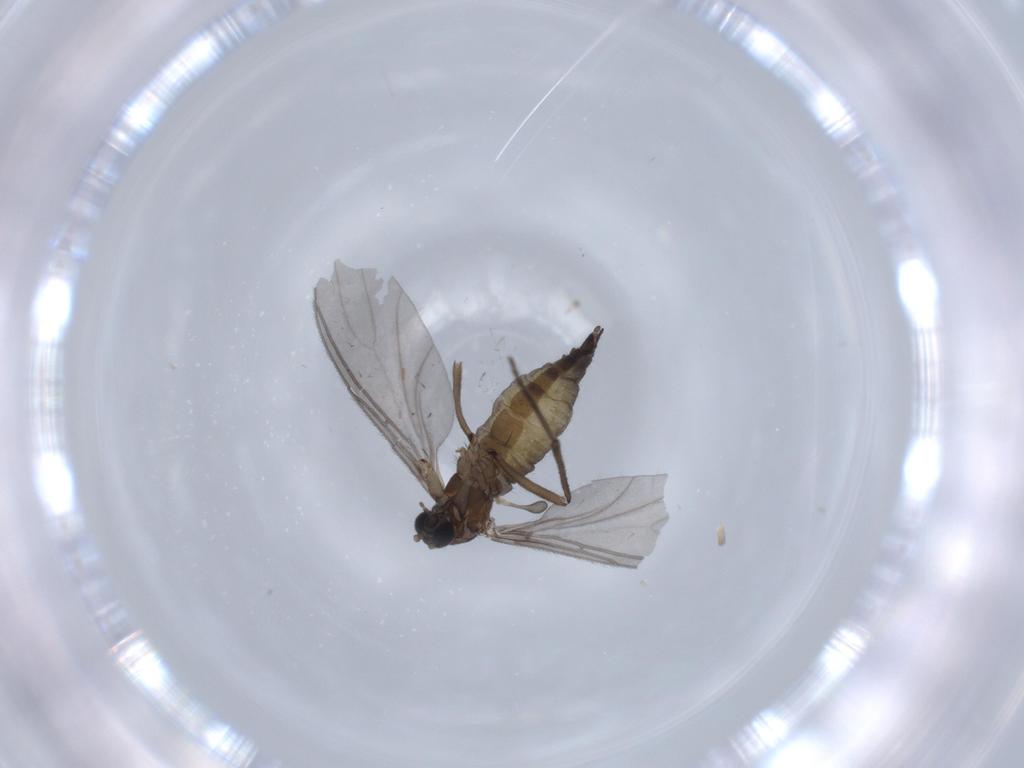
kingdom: Animalia
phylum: Arthropoda
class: Insecta
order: Diptera
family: Sciaridae
